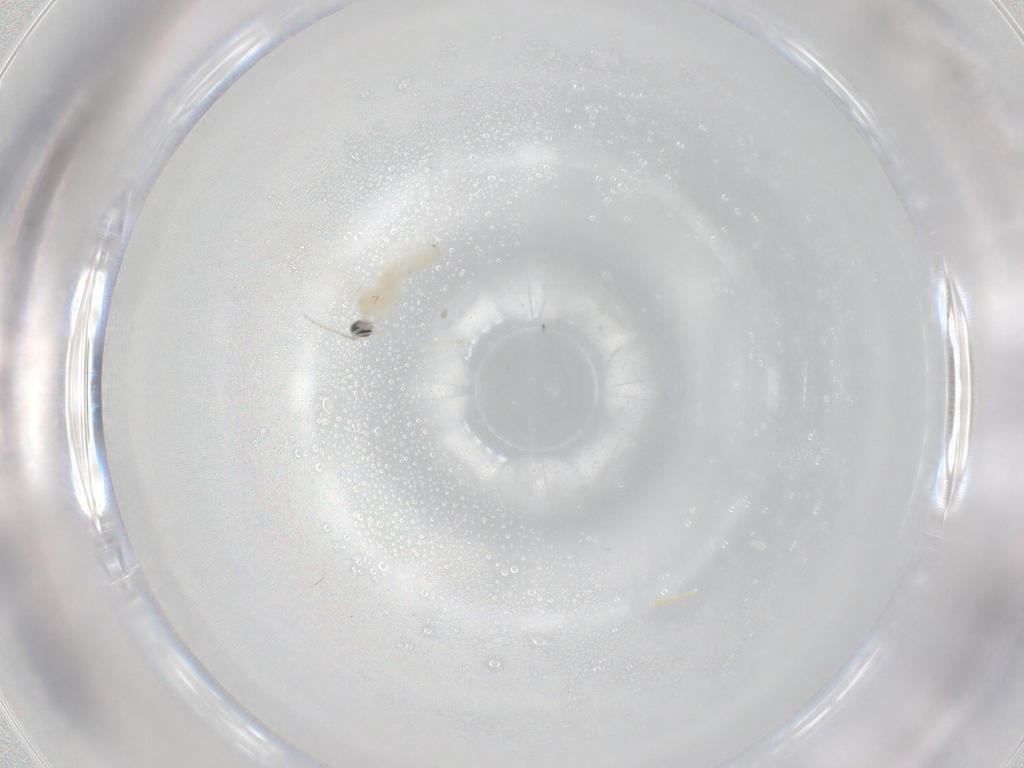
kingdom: Animalia
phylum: Arthropoda
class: Insecta
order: Diptera
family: Cecidomyiidae
